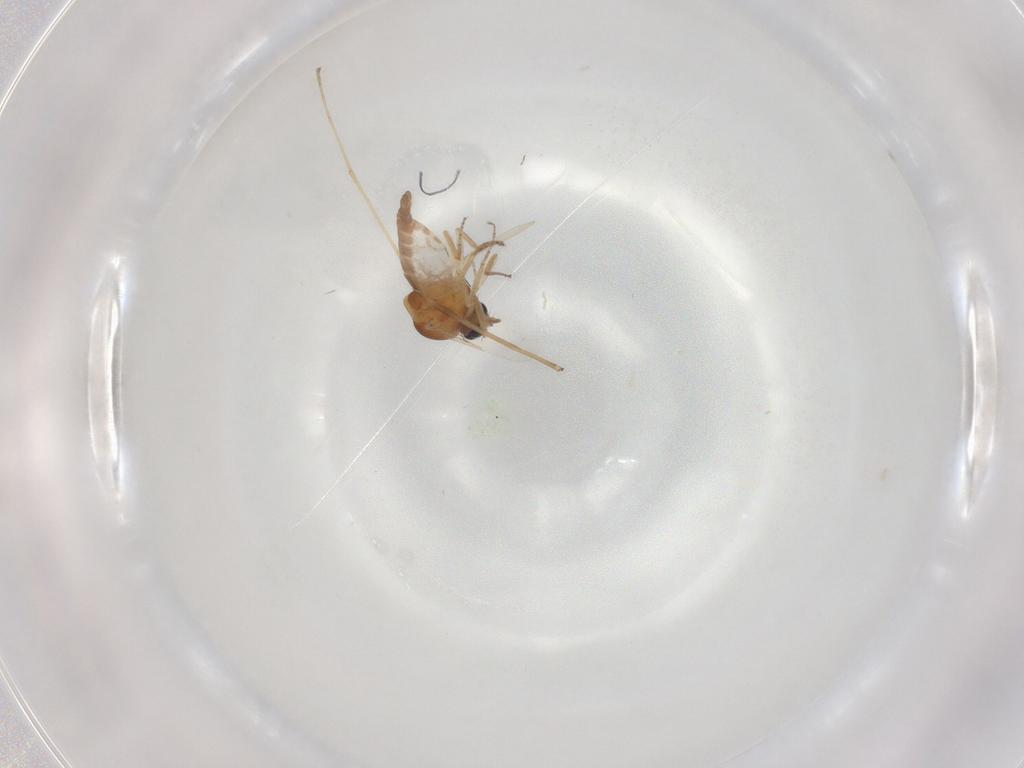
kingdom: Animalia
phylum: Arthropoda
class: Insecta
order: Diptera
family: Ceratopogonidae
